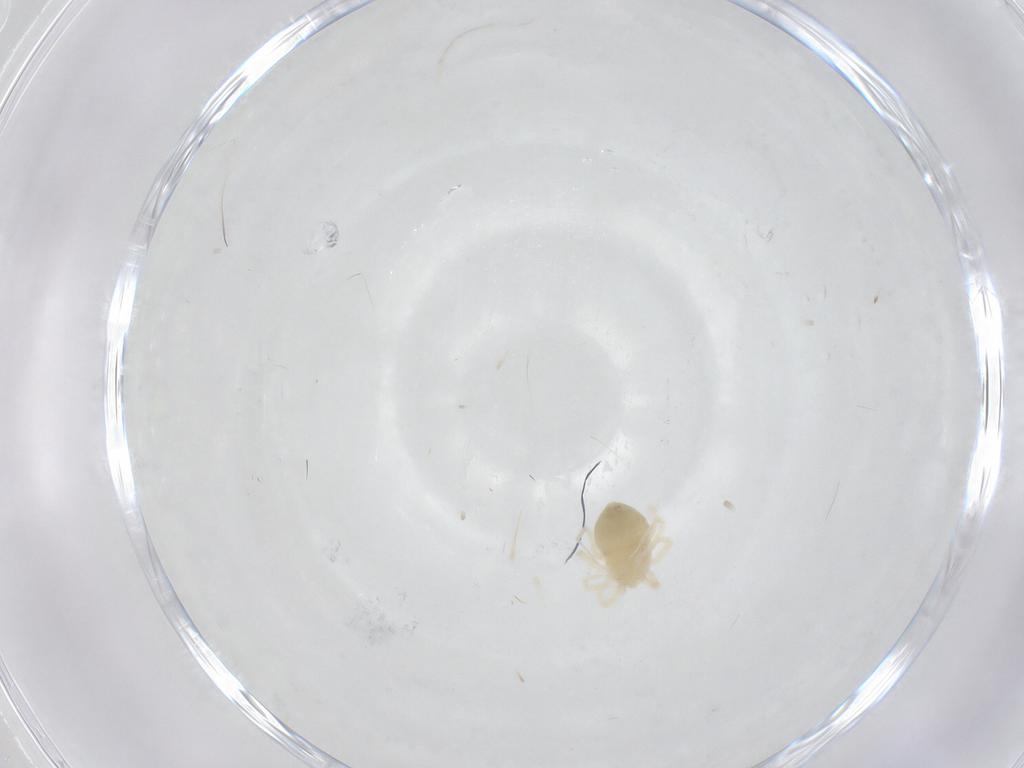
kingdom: Animalia
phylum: Arthropoda
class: Arachnida
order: Trombidiformes
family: Anystidae
